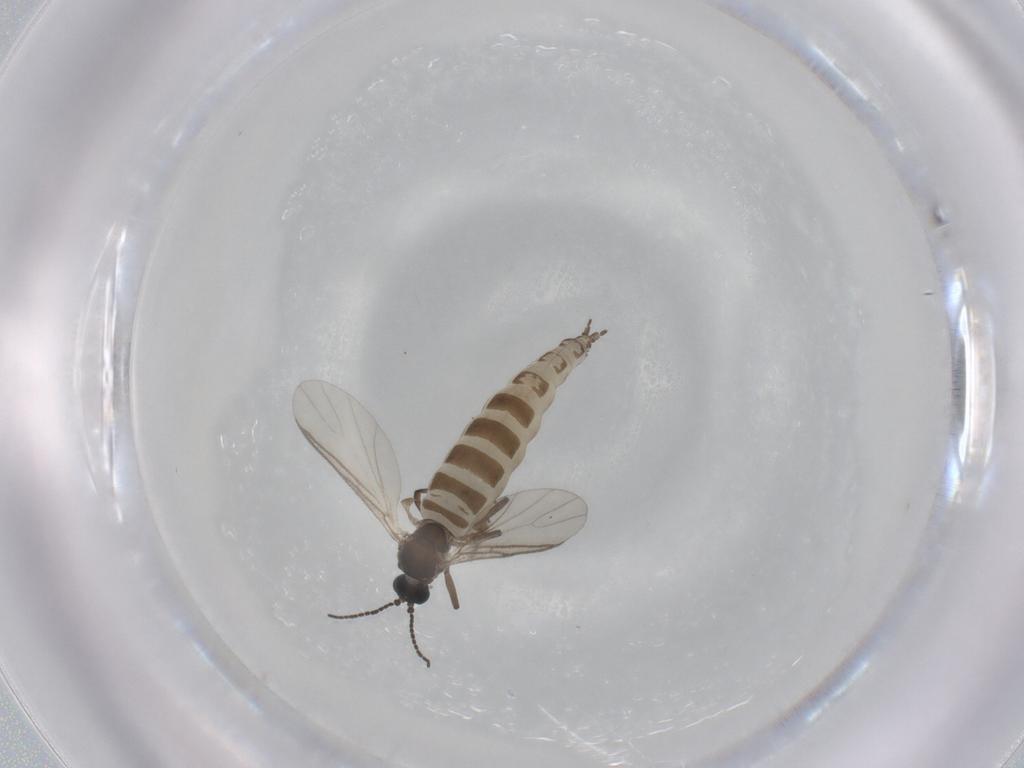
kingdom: Animalia
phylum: Arthropoda
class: Insecta
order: Diptera
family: Sciaridae
